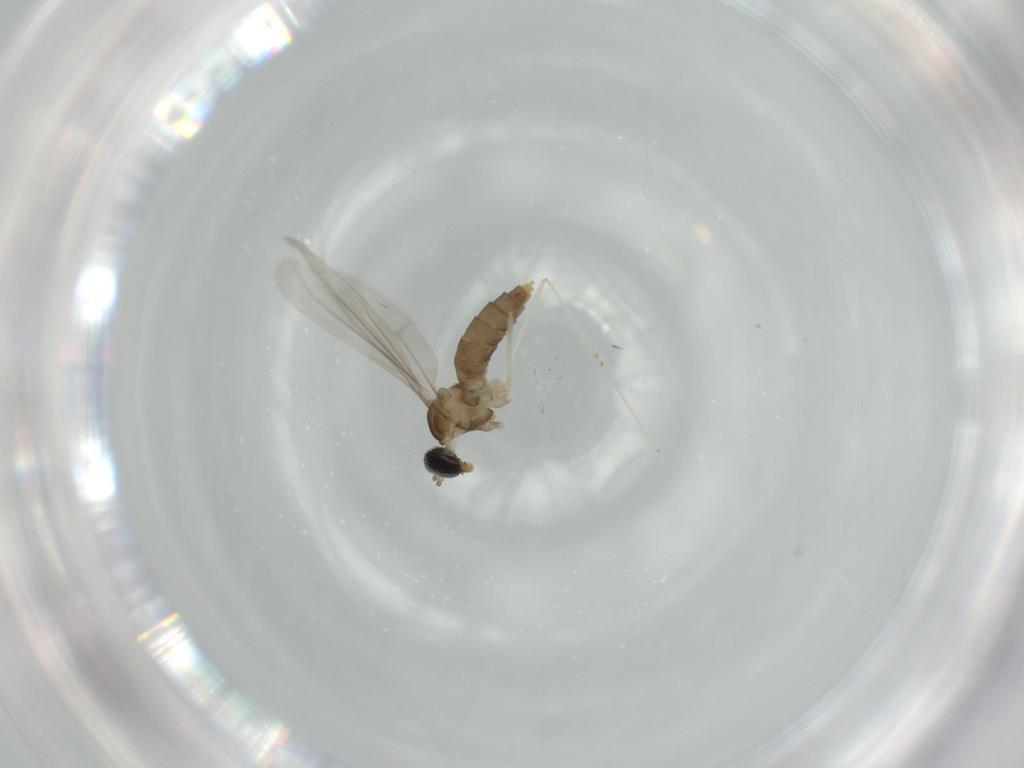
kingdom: Animalia
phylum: Arthropoda
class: Insecta
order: Diptera
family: Cecidomyiidae
